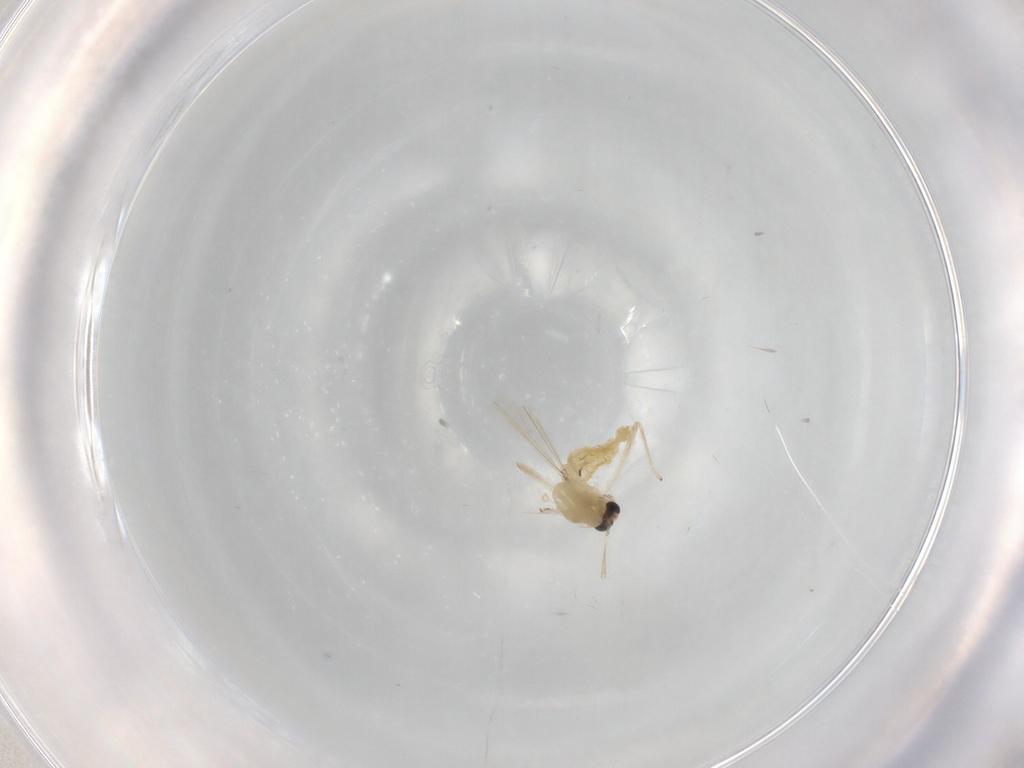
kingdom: Animalia
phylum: Arthropoda
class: Insecta
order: Diptera
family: Chironomidae
